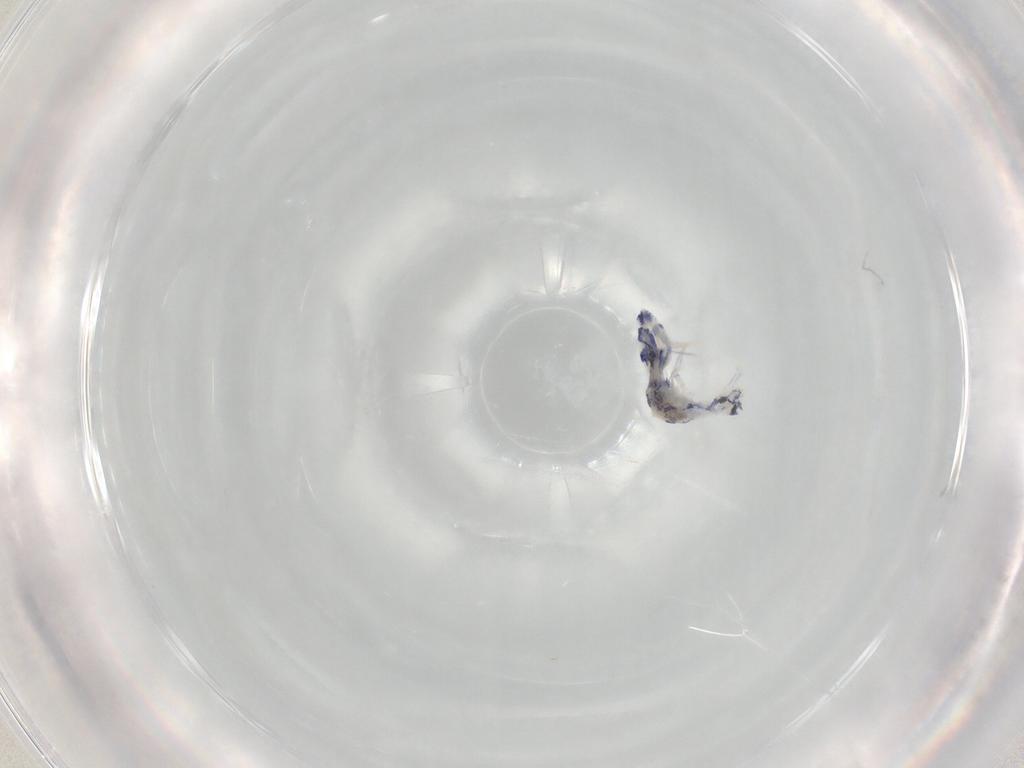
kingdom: Animalia
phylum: Arthropoda
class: Collembola
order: Entomobryomorpha
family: Entomobryidae
